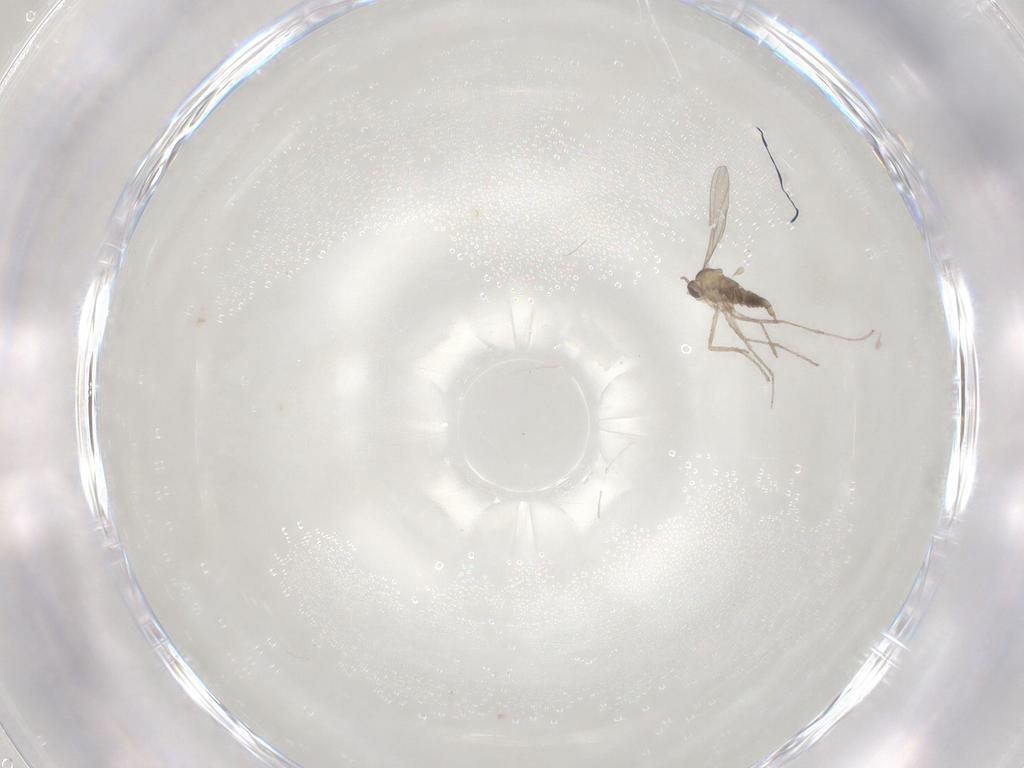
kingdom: Animalia
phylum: Arthropoda
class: Insecta
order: Diptera
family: Cecidomyiidae
